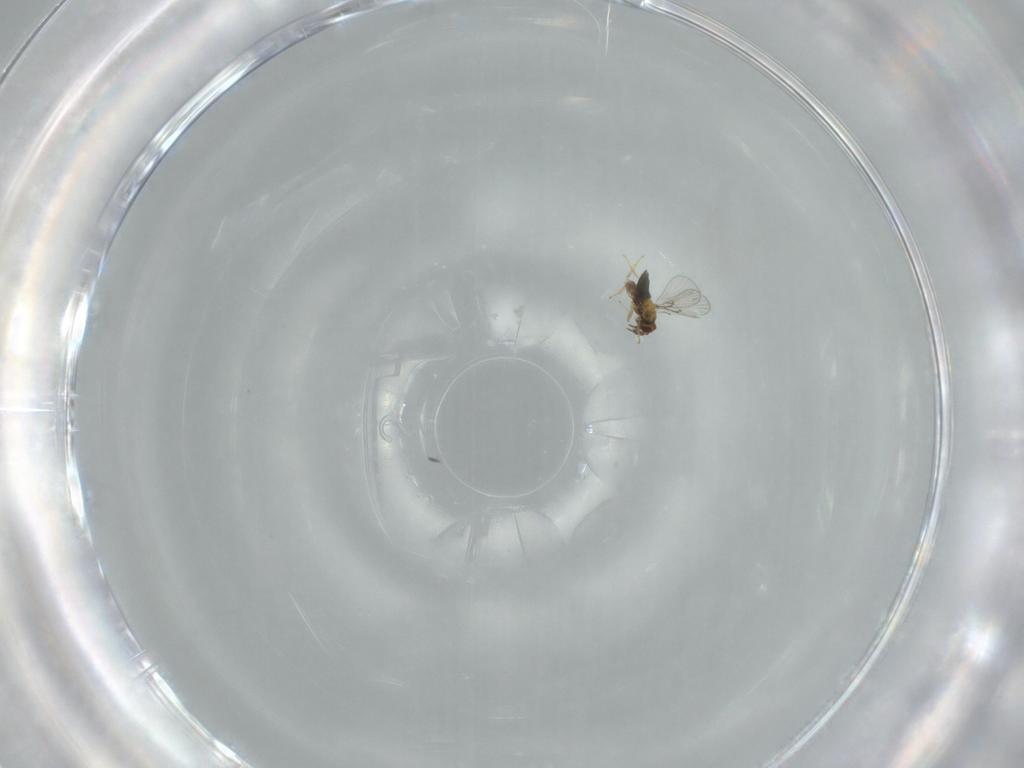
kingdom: Animalia
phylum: Arthropoda
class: Insecta
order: Hymenoptera
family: Trichogrammatidae
